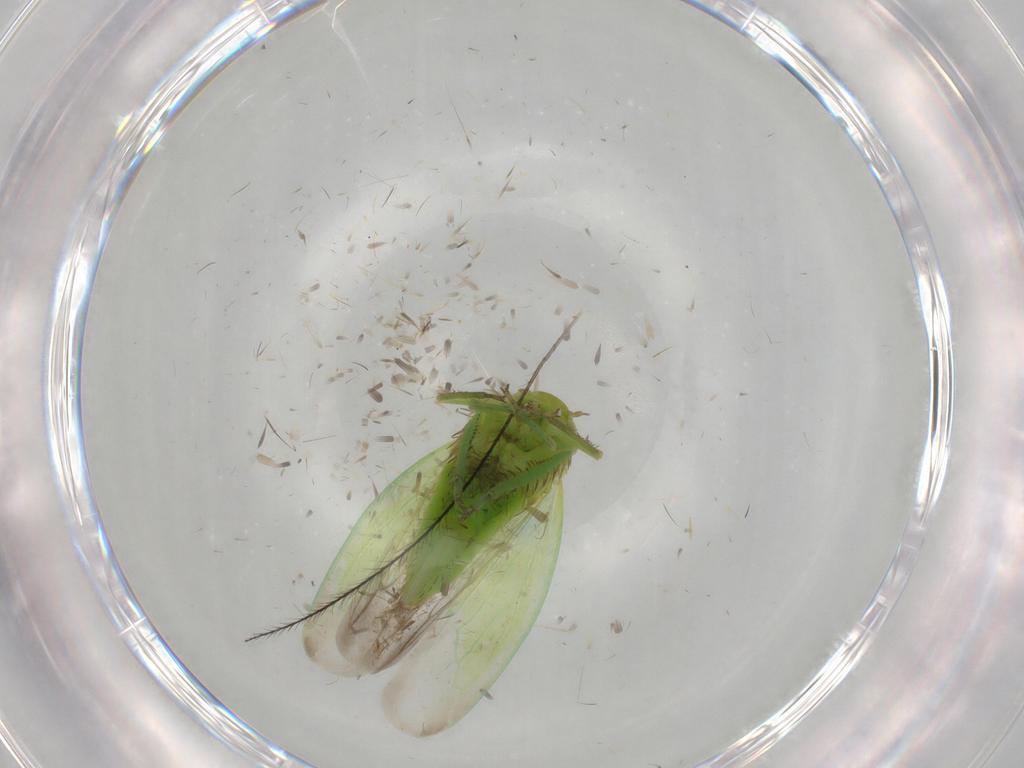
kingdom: Animalia
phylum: Arthropoda
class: Insecta
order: Hemiptera
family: Cicadellidae
